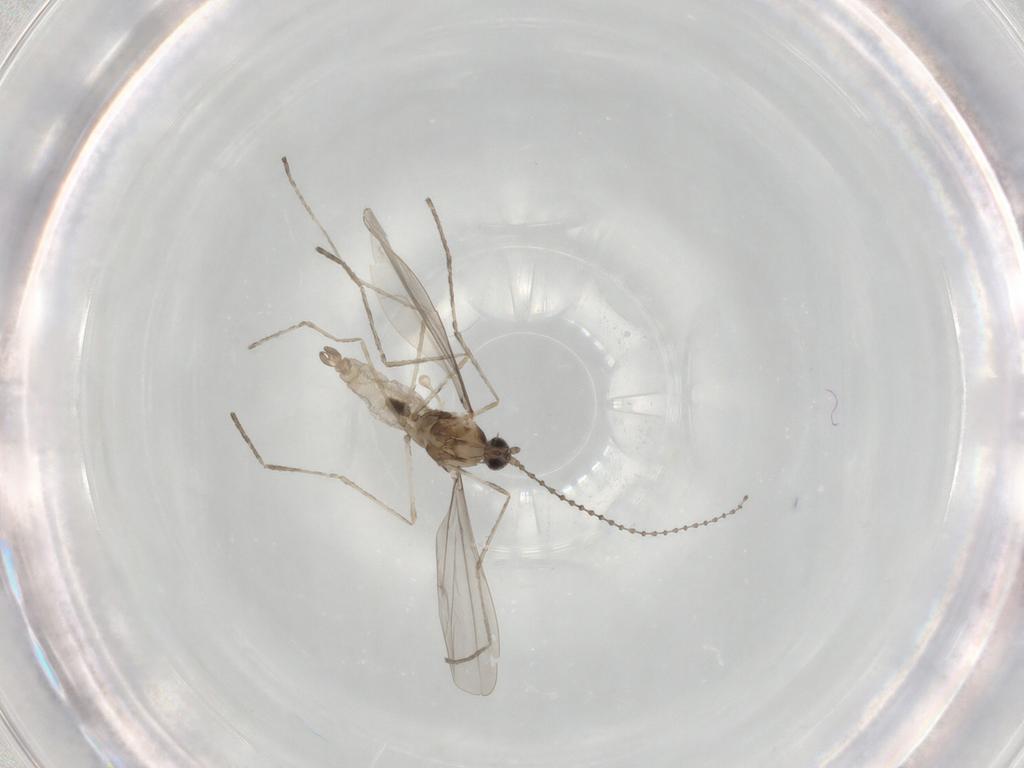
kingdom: Animalia
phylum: Arthropoda
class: Insecta
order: Diptera
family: Cecidomyiidae
